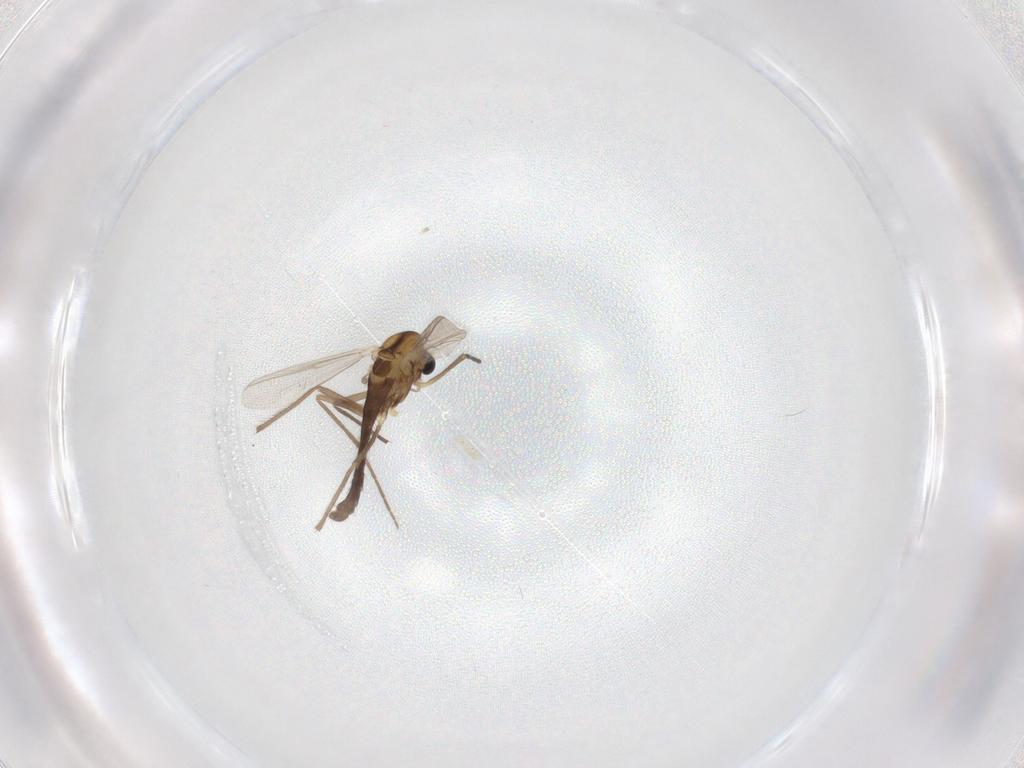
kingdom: Animalia
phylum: Arthropoda
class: Insecta
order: Diptera
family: Chironomidae
